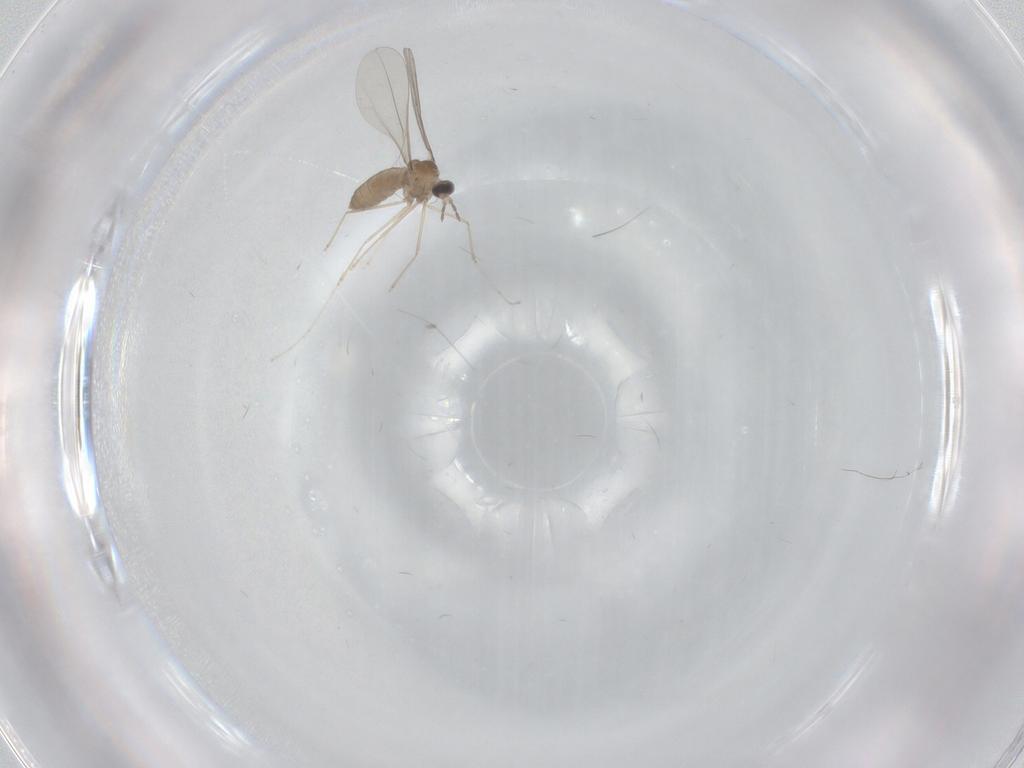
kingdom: Animalia
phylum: Arthropoda
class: Insecta
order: Diptera
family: Cecidomyiidae
